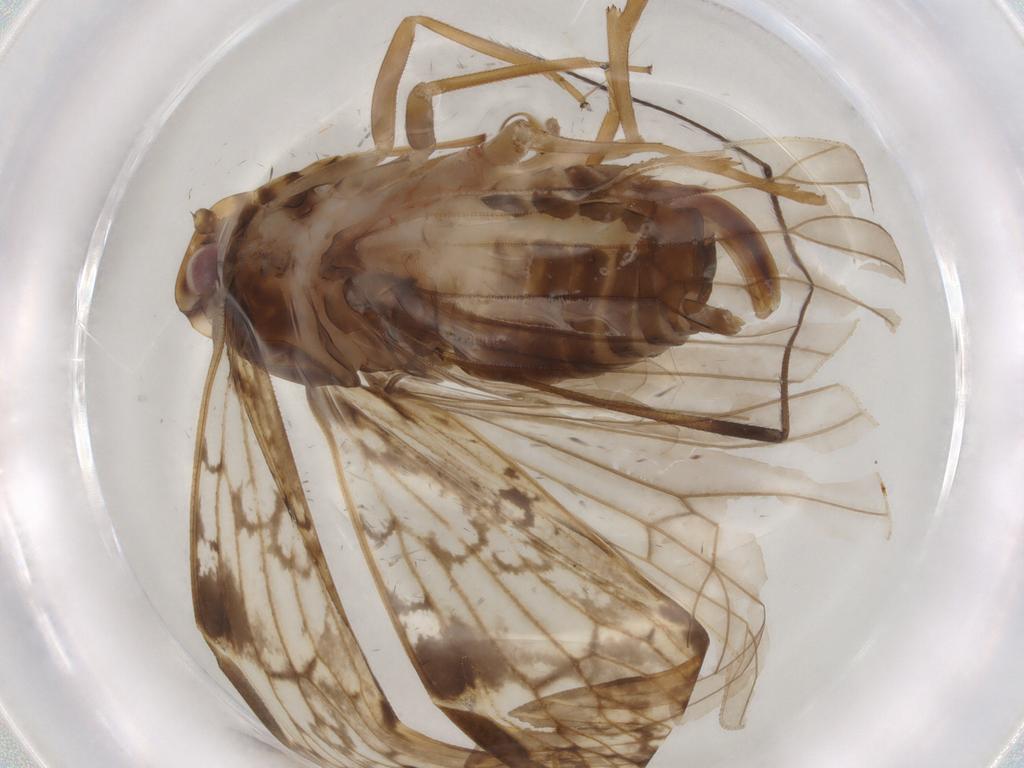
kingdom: Animalia
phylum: Arthropoda
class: Insecta
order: Hemiptera
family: Cixiidae
